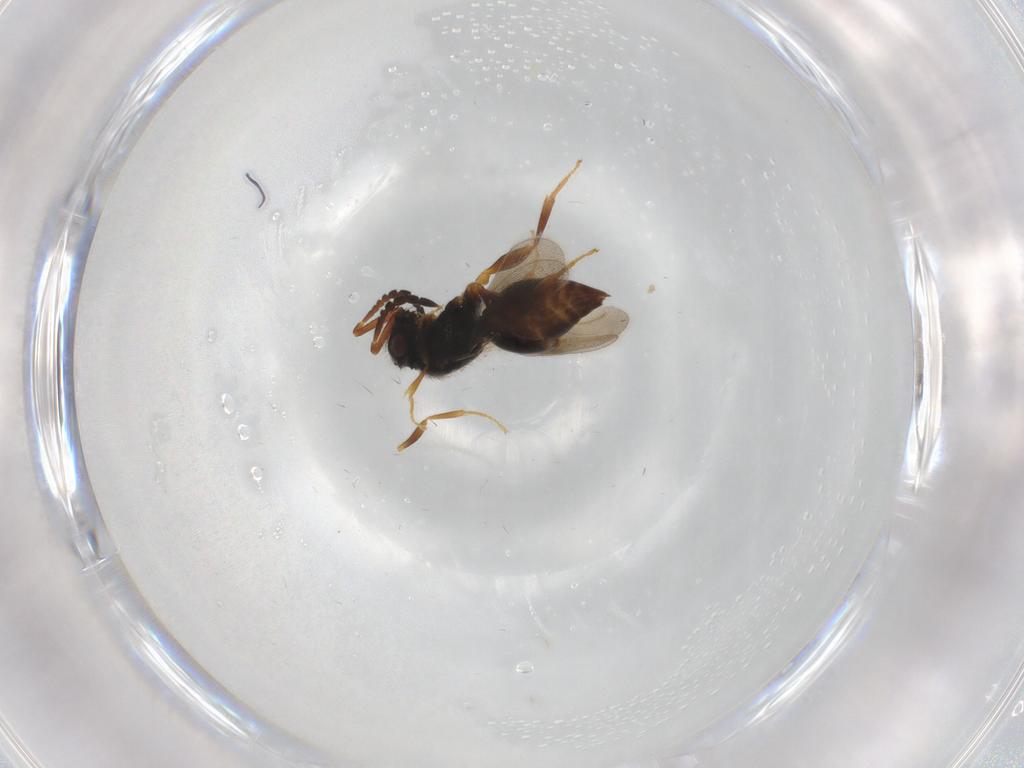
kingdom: Animalia
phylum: Arthropoda
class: Insecta
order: Hymenoptera
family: Ceraphronidae
